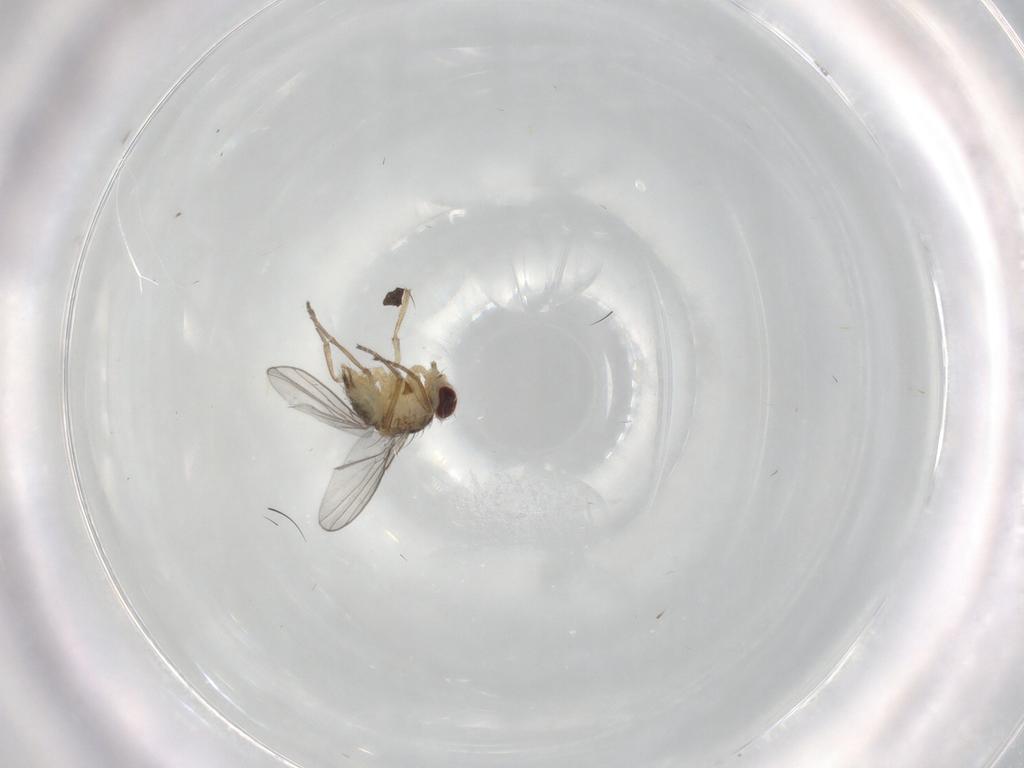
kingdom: Animalia
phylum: Arthropoda
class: Insecta
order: Diptera
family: Agromyzidae
